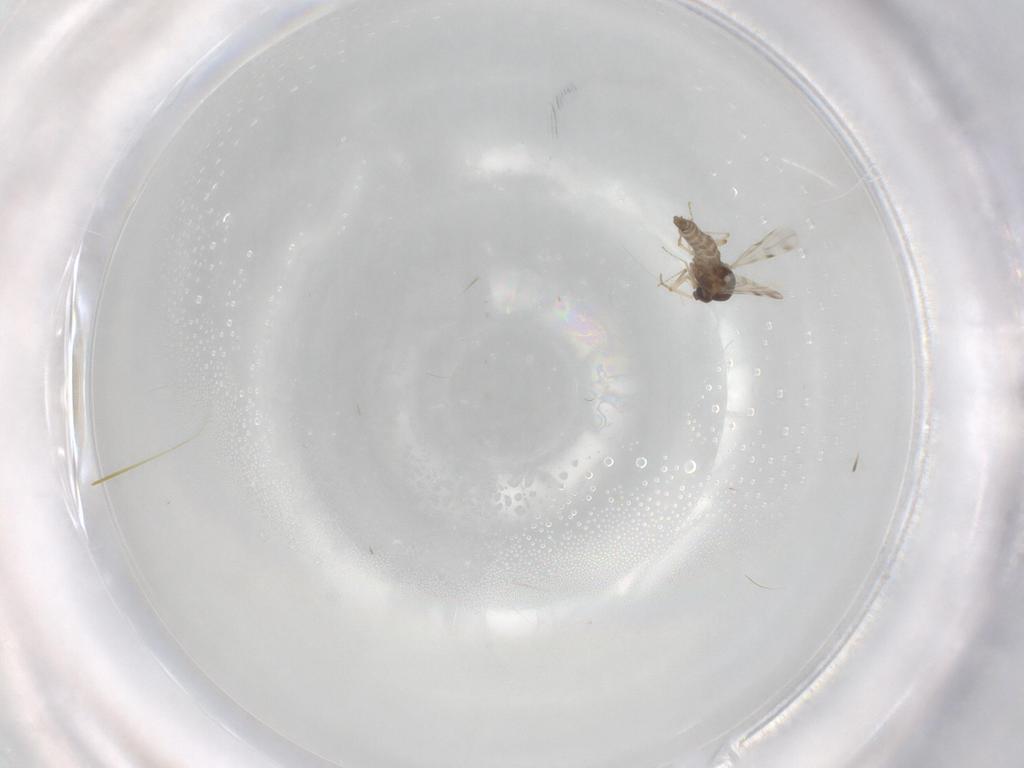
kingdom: Animalia
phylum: Arthropoda
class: Insecta
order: Diptera
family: Ceratopogonidae
